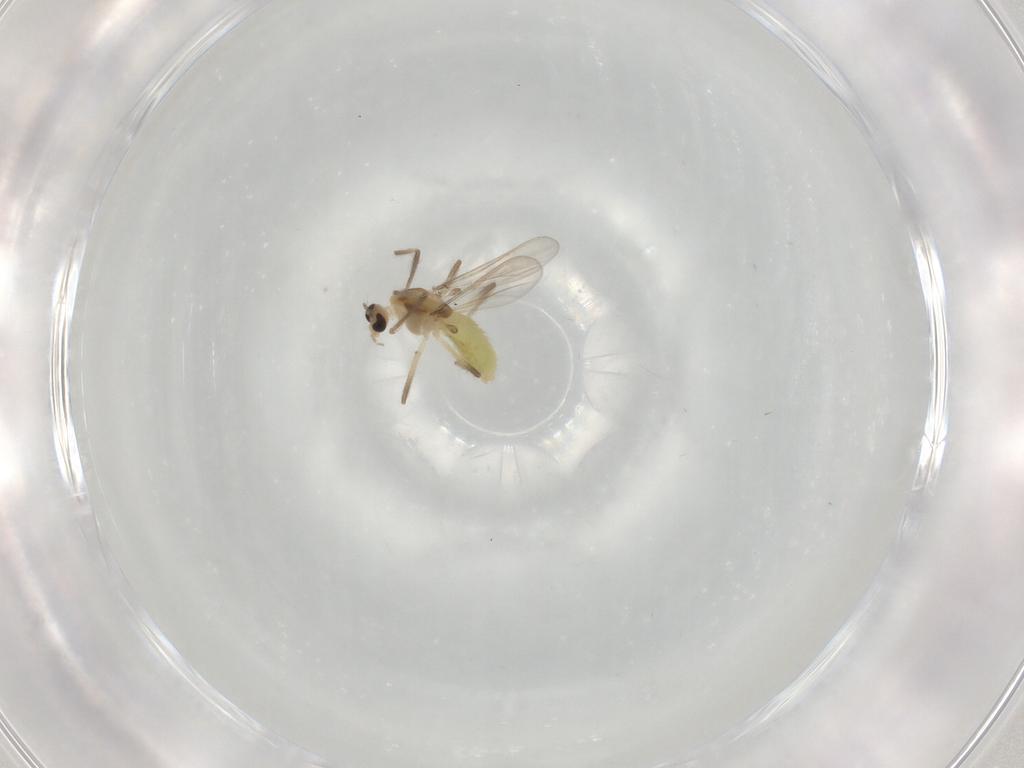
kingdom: Animalia
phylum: Arthropoda
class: Insecta
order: Diptera
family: Chironomidae
